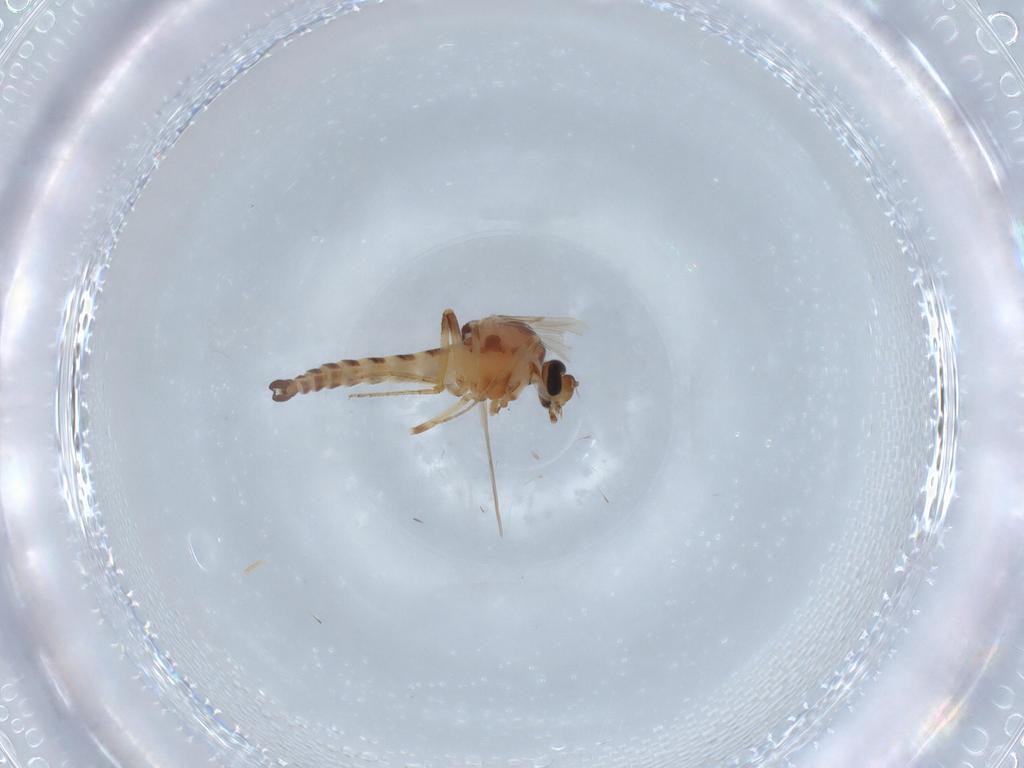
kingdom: Animalia
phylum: Arthropoda
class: Insecta
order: Diptera
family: Ceratopogonidae
